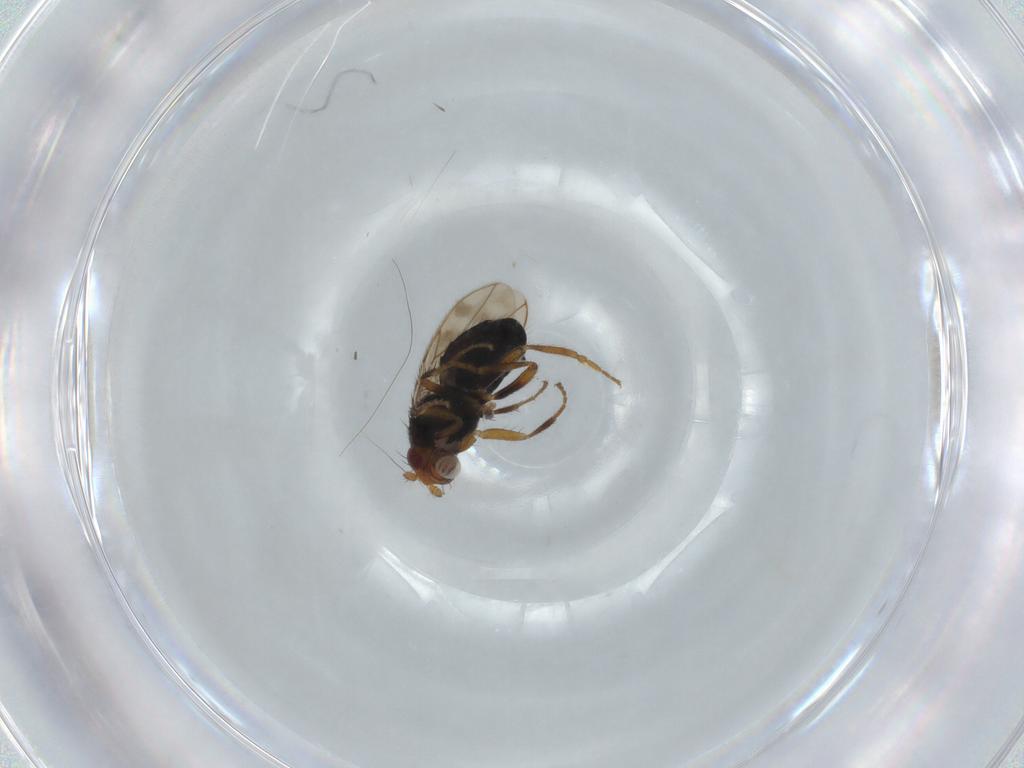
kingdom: Animalia
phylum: Arthropoda
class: Insecta
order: Diptera
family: Sphaeroceridae
